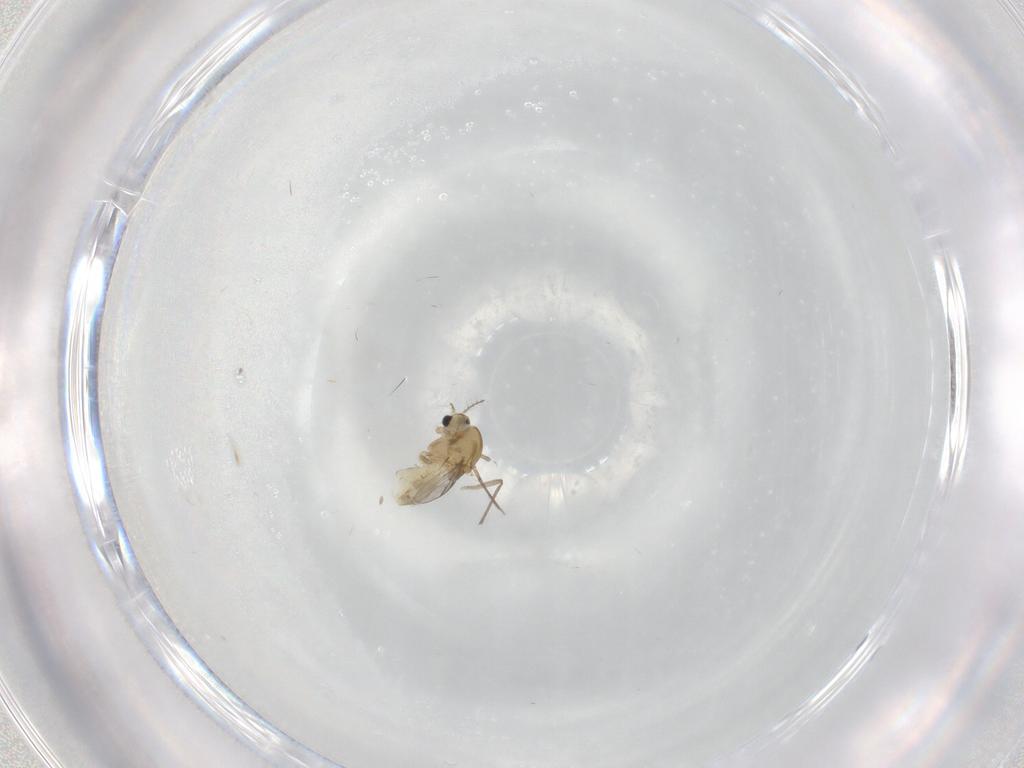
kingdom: Animalia
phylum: Arthropoda
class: Insecta
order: Diptera
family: Chironomidae
